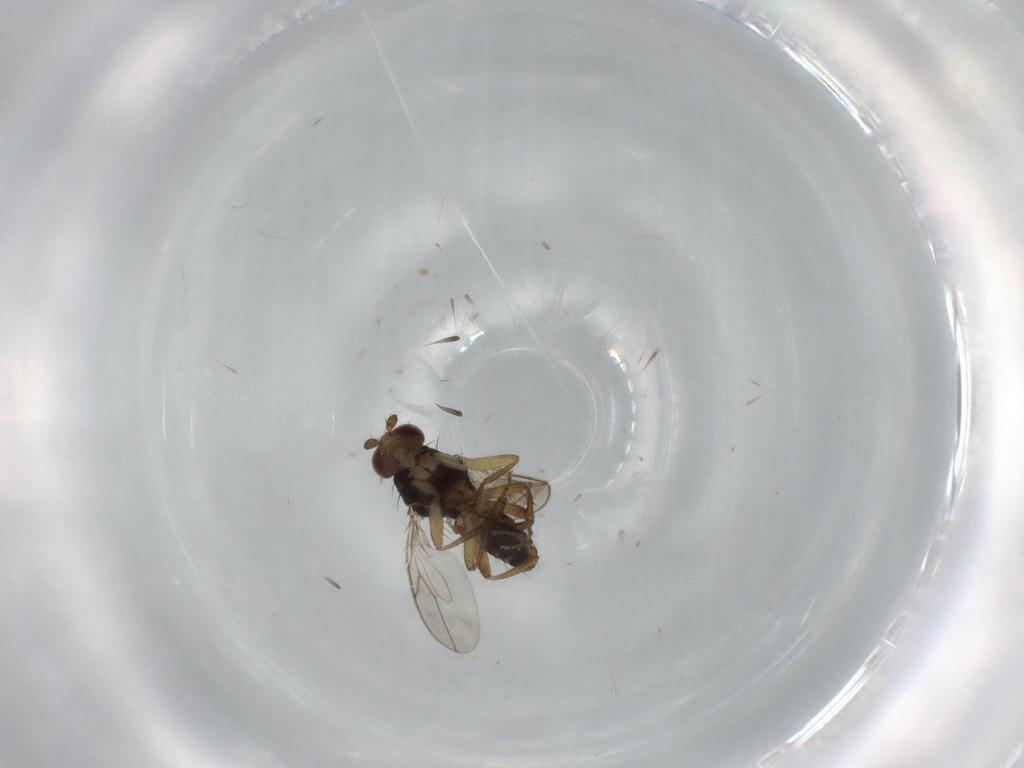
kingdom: Animalia
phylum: Arthropoda
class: Insecta
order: Diptera
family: Sphaeroceridae
